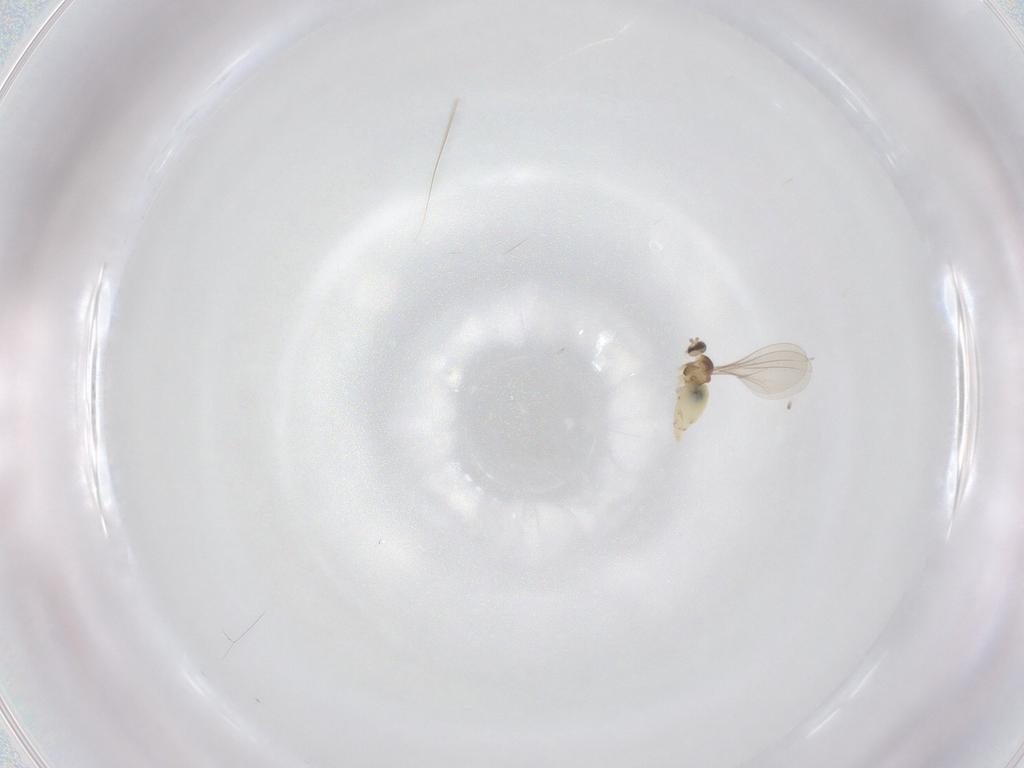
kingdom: Animalia
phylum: Arthropoda
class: Insecta
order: Diptera
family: Cecidomyiidae
